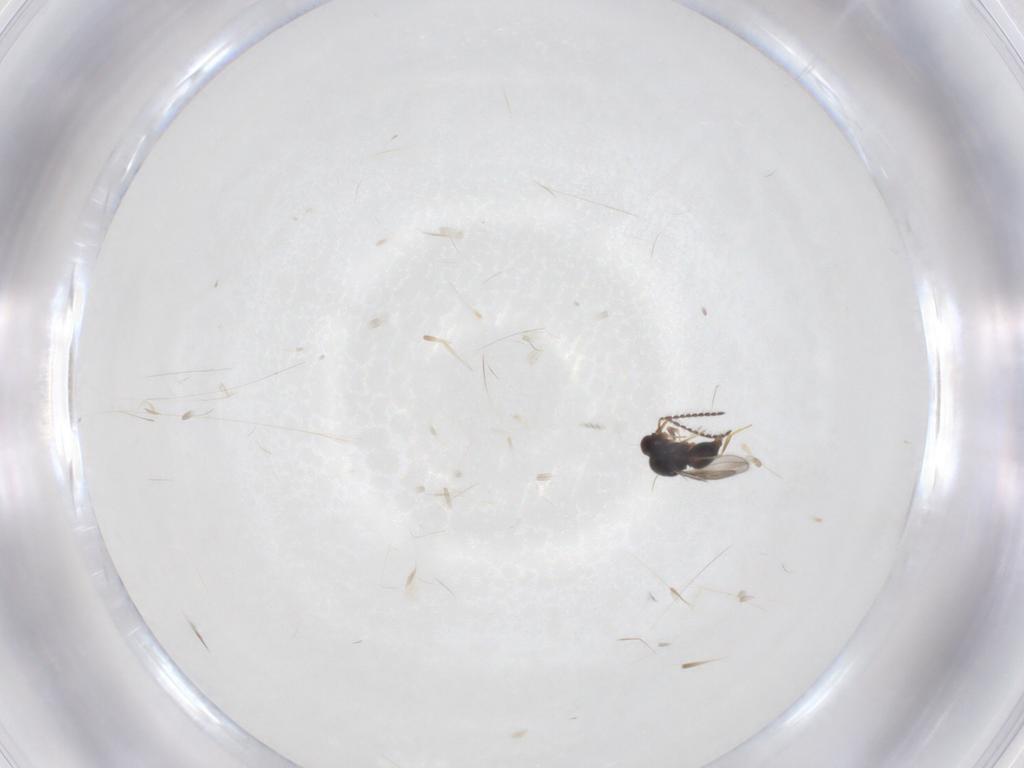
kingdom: Animalia
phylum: Arthropoda
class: Insecta
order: Hymenoptera
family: Ceraphronidae
